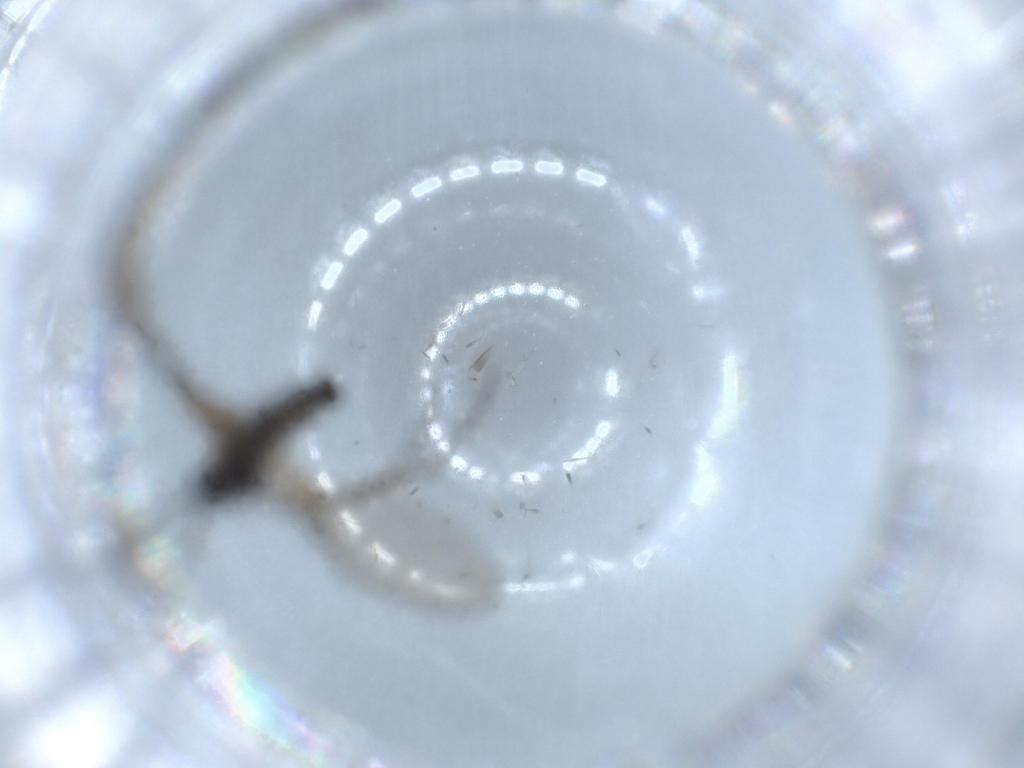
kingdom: Animalia
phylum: Arthropoda
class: Insecta
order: Diptera
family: Sciaridae
